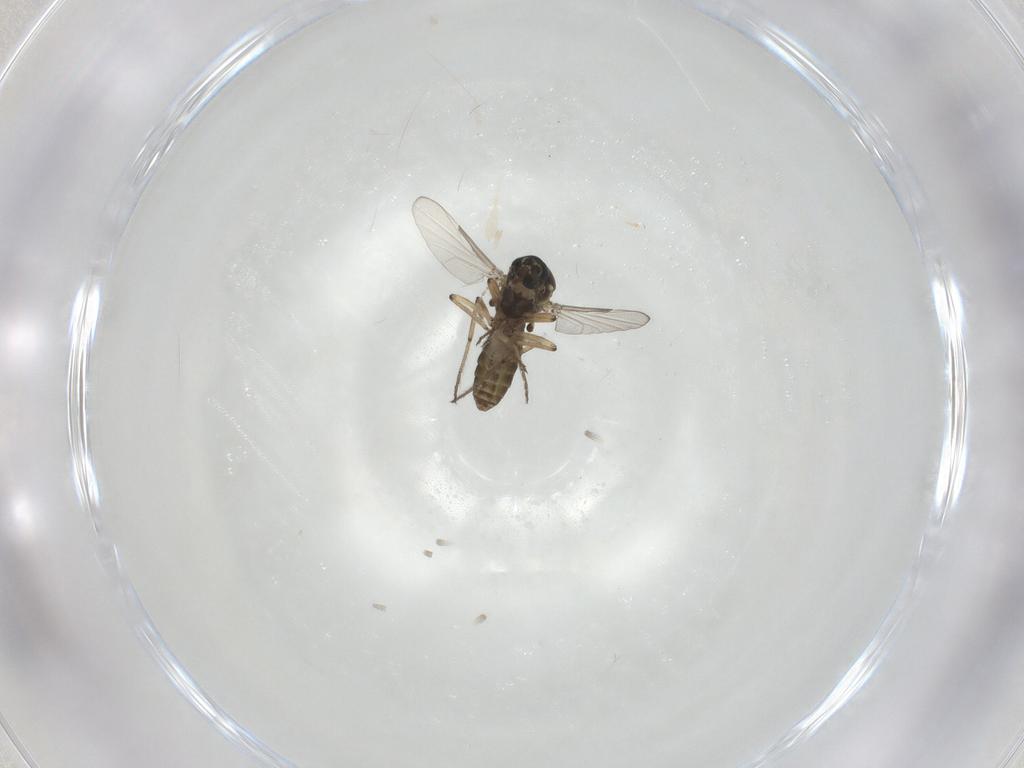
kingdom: Animalia
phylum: Arthropoda
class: Insecta
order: Diptera
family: Ceratopogonidae
